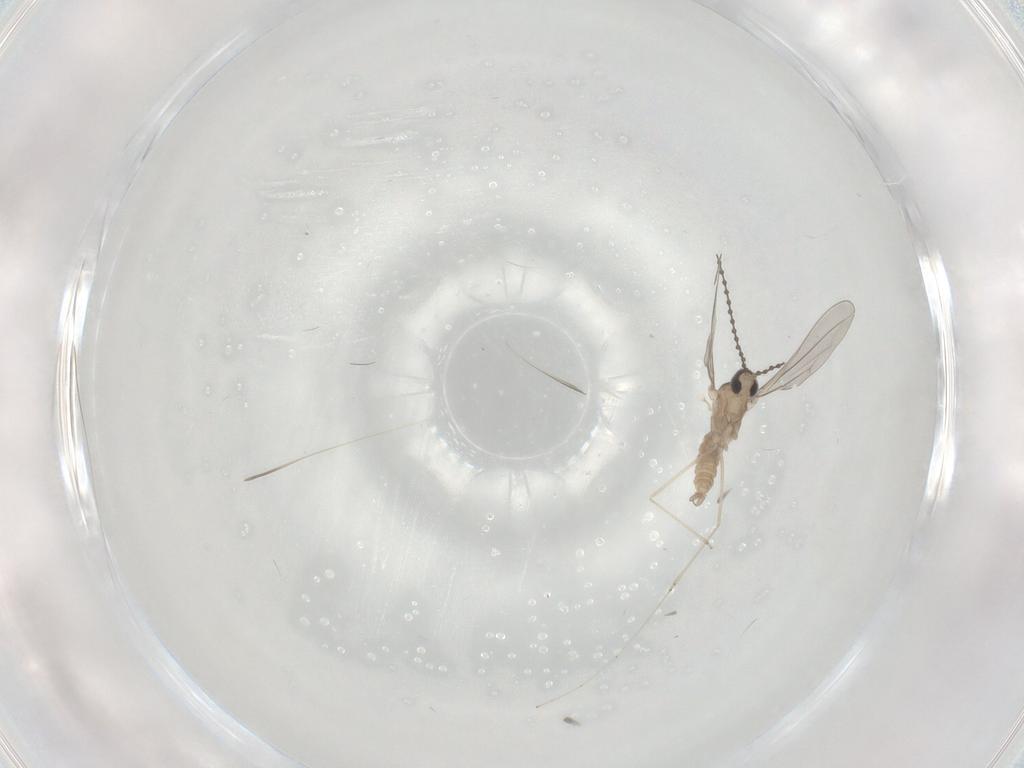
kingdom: Animalia
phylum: Arthropoda
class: Insecta
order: Diptera
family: Cecidomyiidae
